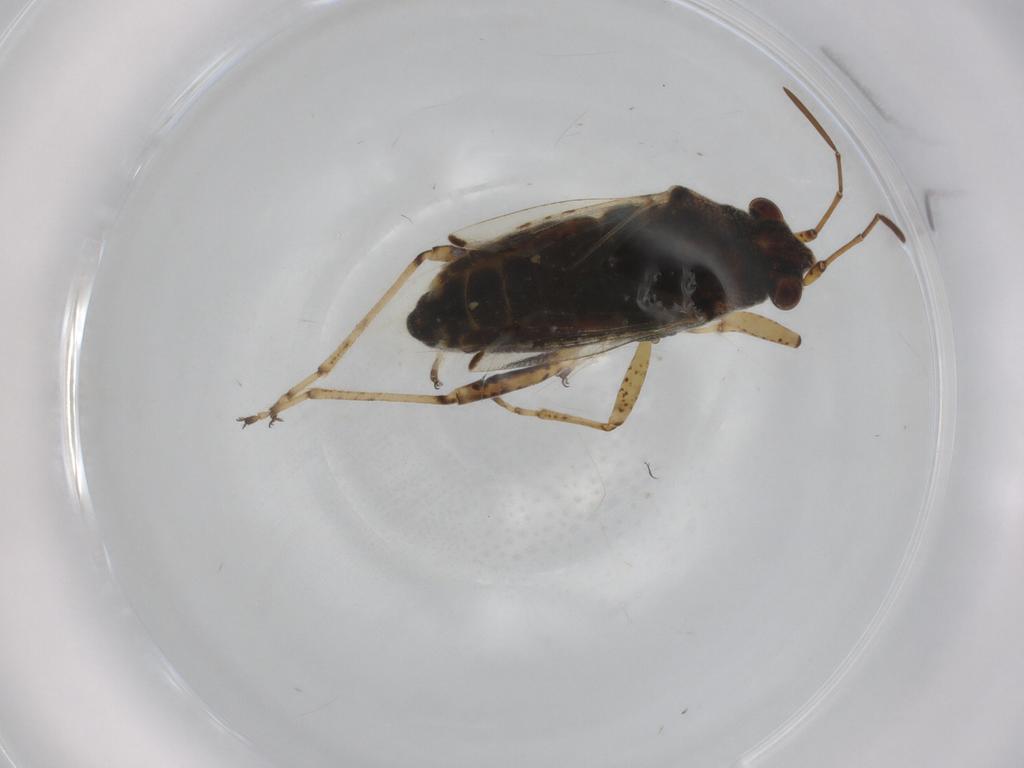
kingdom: Animalia
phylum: Arthropoda
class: Insecta
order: Hemiptera
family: Lygaeidae
